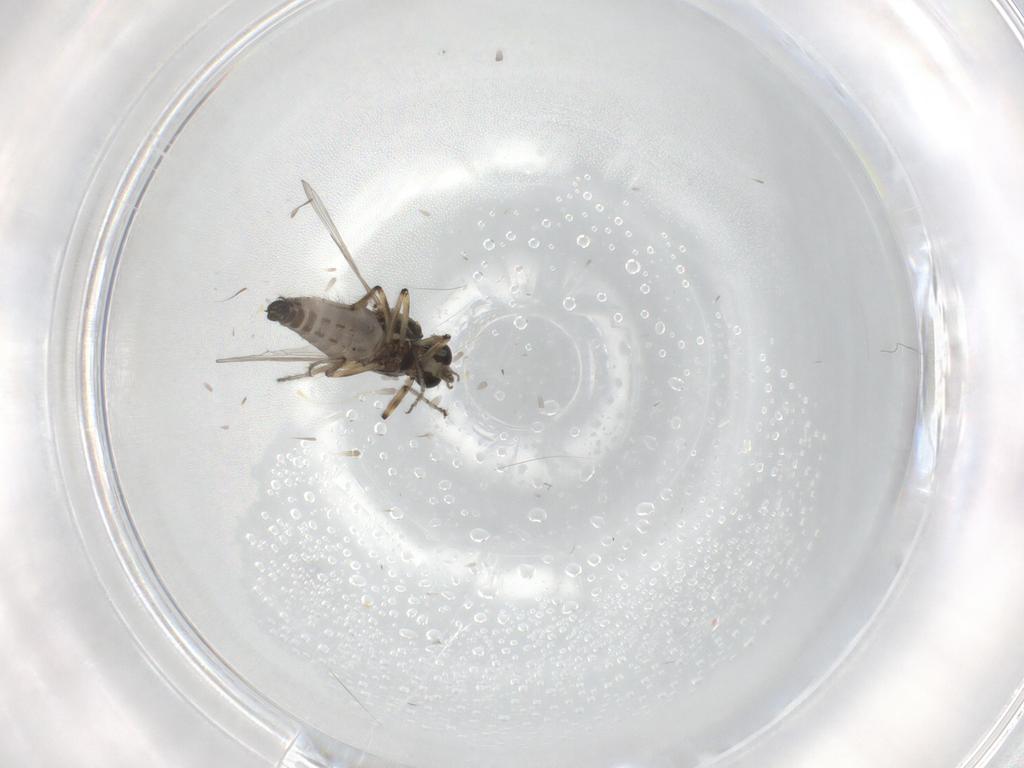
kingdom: Animalia
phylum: Arthropoda
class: Insecta
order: Diptera
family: Ceratopogonidae
